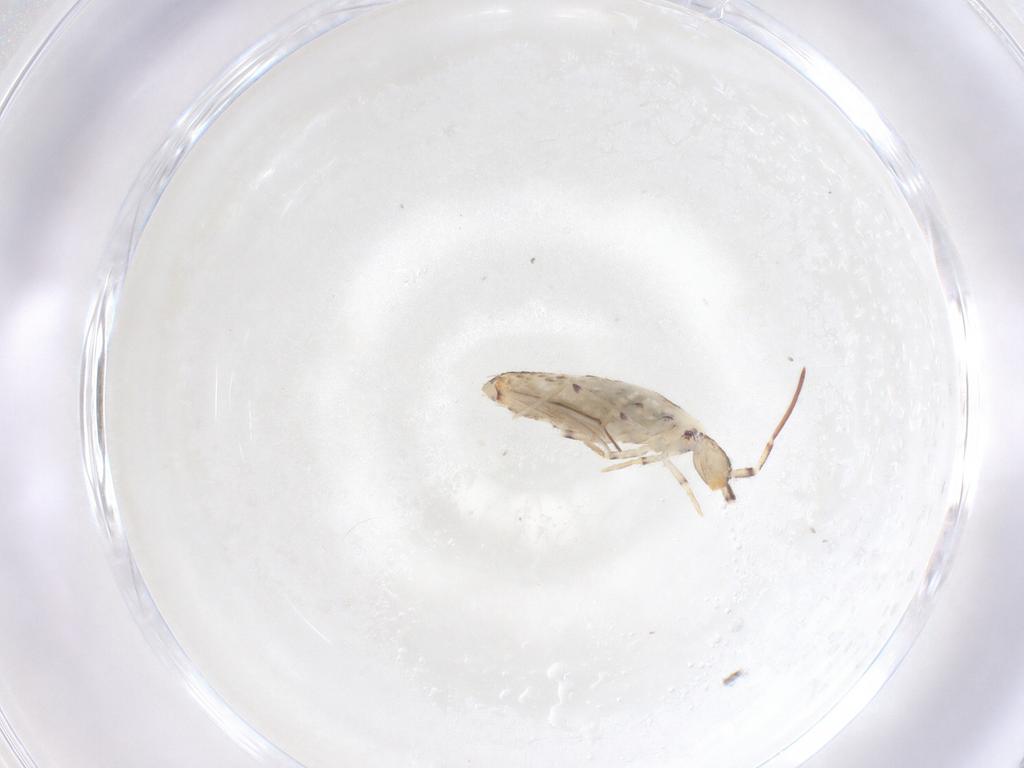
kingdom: Animalia
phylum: Arthropoda
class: Collembola
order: Entomobryomorpha
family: Entomobryidae
